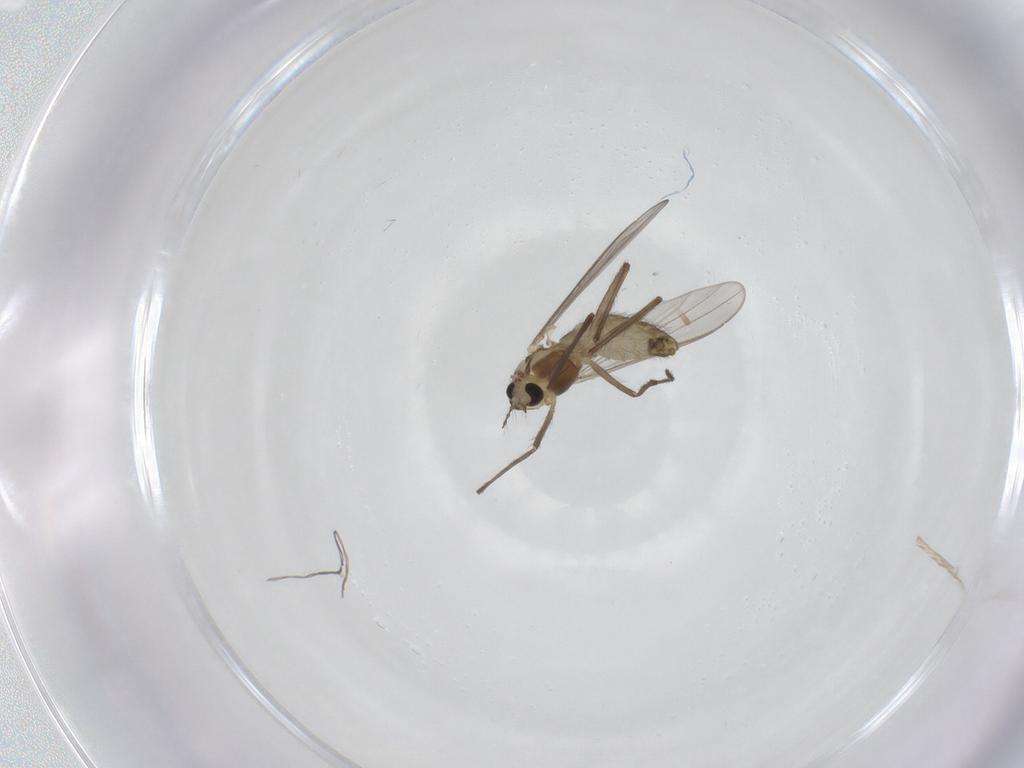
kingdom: Animalia
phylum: Arthropoda
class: Insecta
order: Diptera
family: Chironomidae
